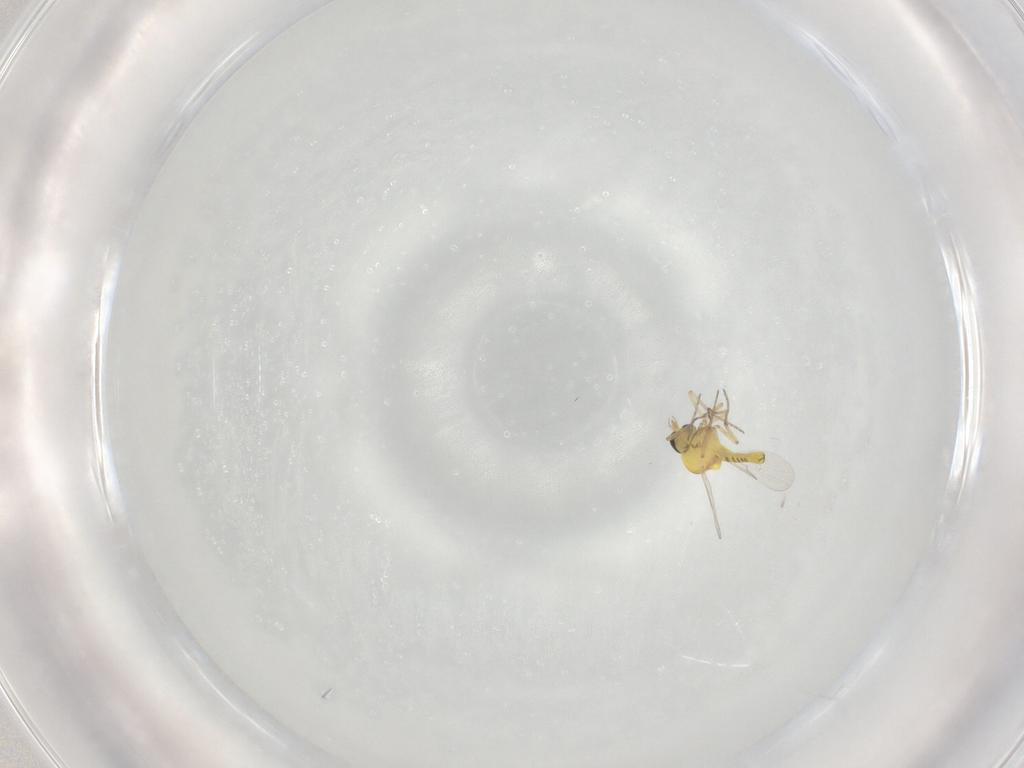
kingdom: Animalia
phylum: Arthropoda
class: Insecta
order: Diptera
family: Ceratopogonidae
